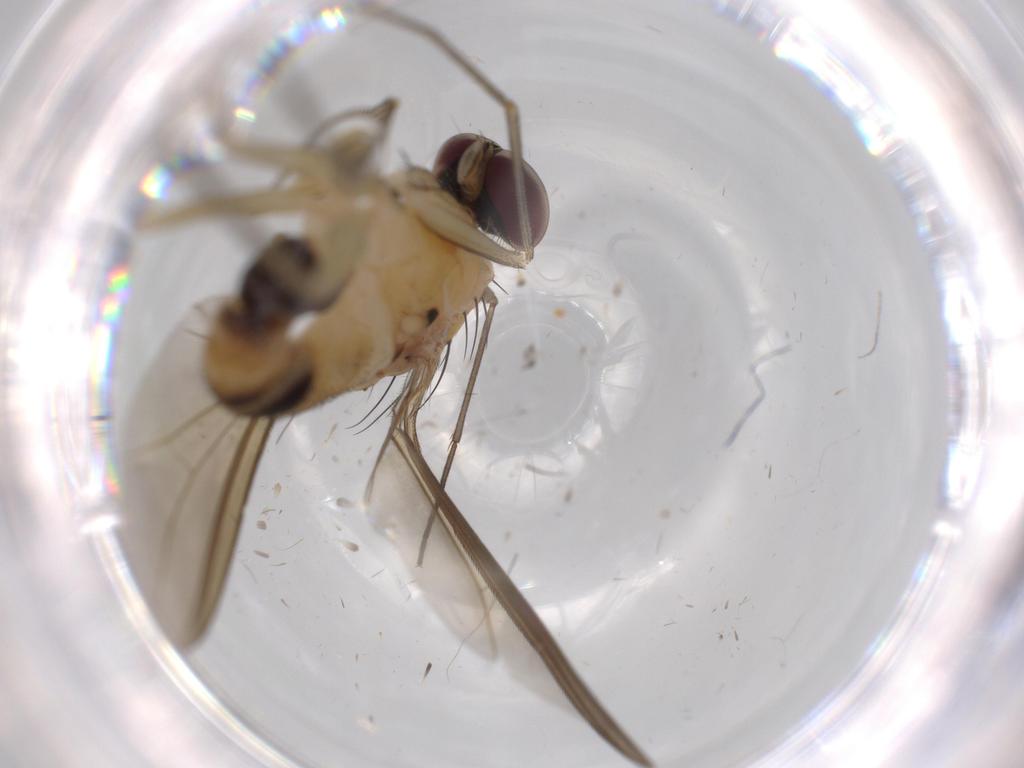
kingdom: Animalia
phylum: Arthropoda
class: Insecta
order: Diptera
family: Dolichopodidae
